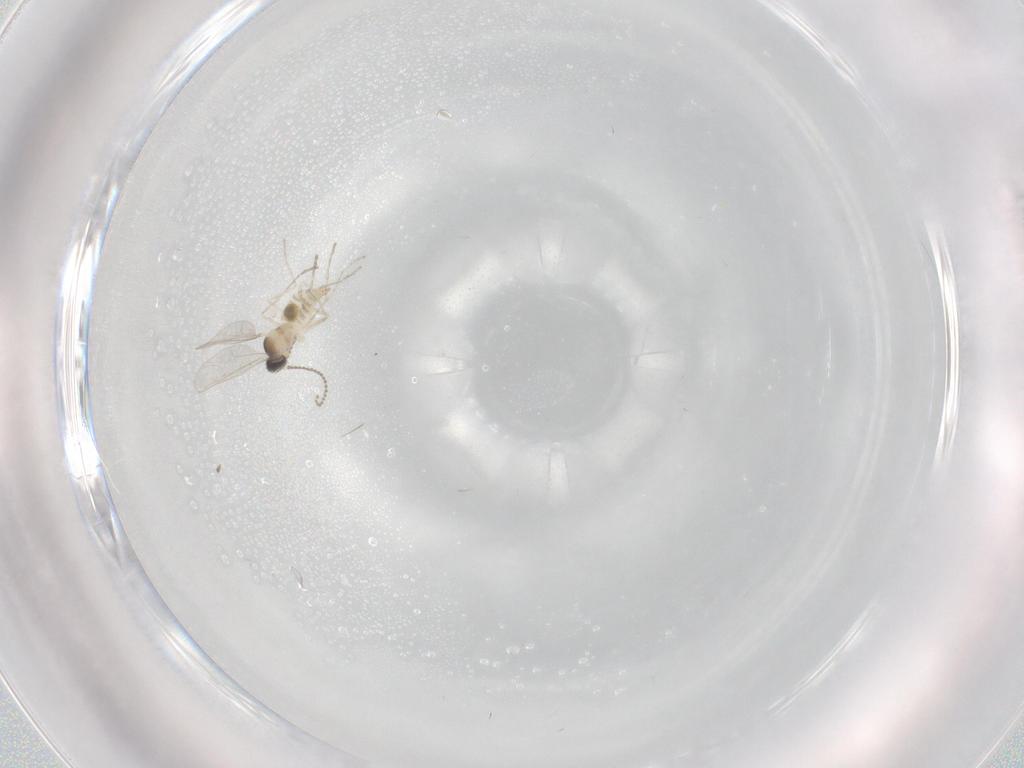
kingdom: Animalia
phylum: Arthropoda
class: Insecta
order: Diptera
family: Cecidomyiidae
